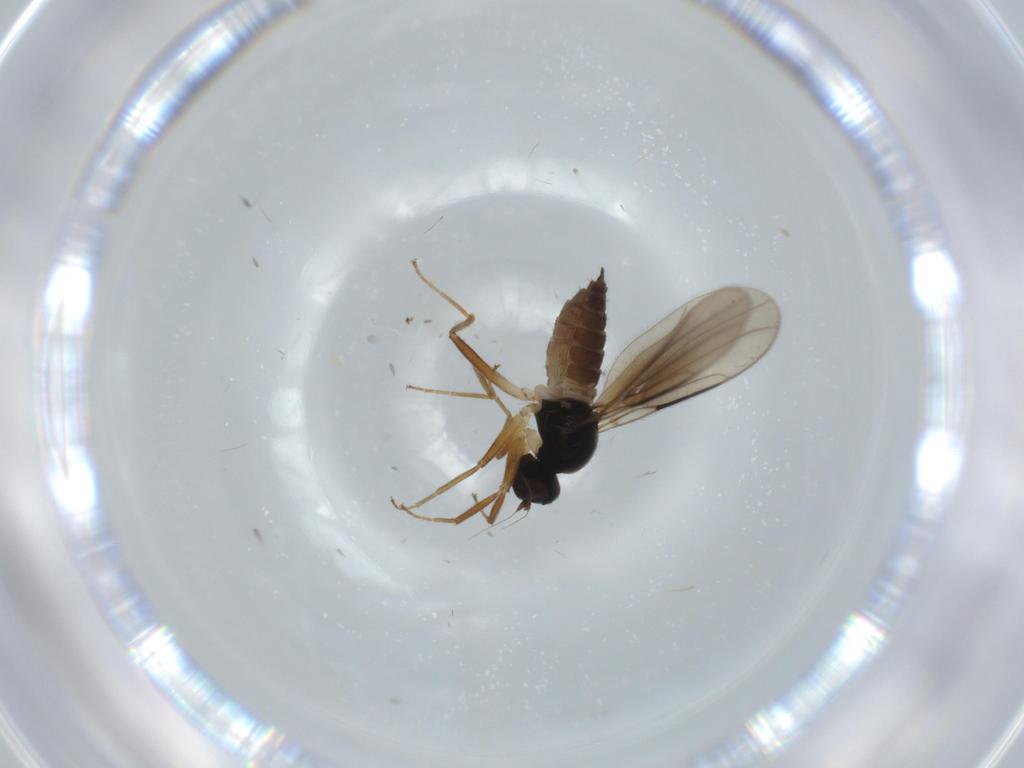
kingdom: Animalia
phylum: Arthropoda
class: Insecta
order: Diptera
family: Hybotidae
